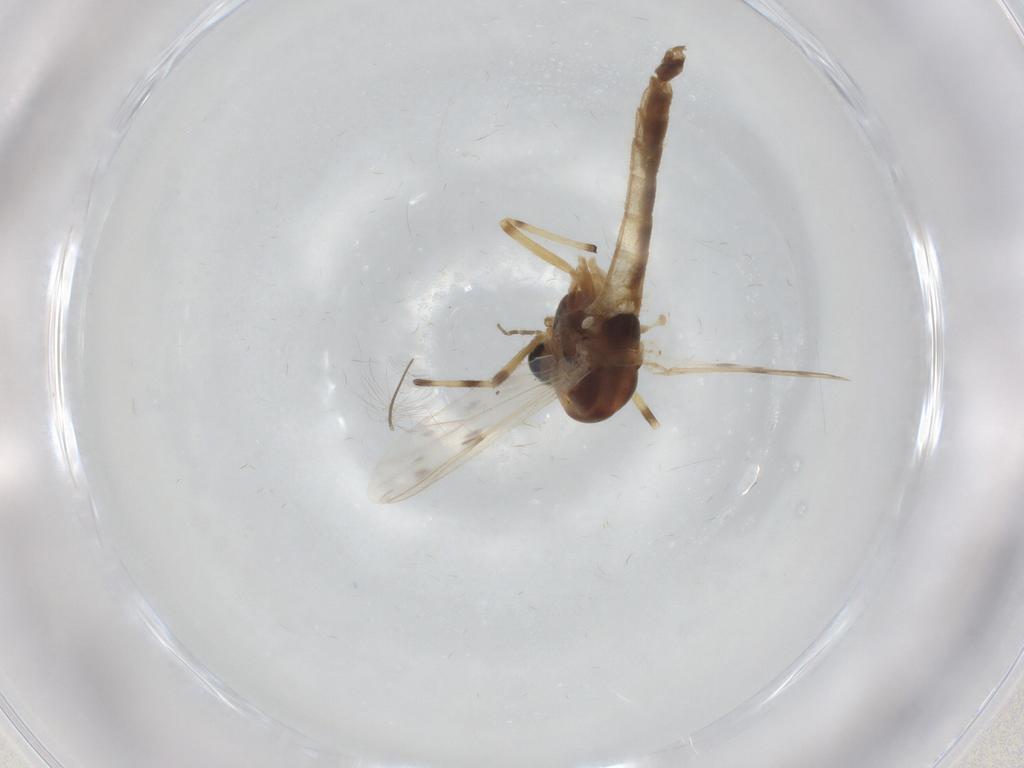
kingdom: Animalia
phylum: Arthropoda
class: Insecta
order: Diptera
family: Chironomidae
